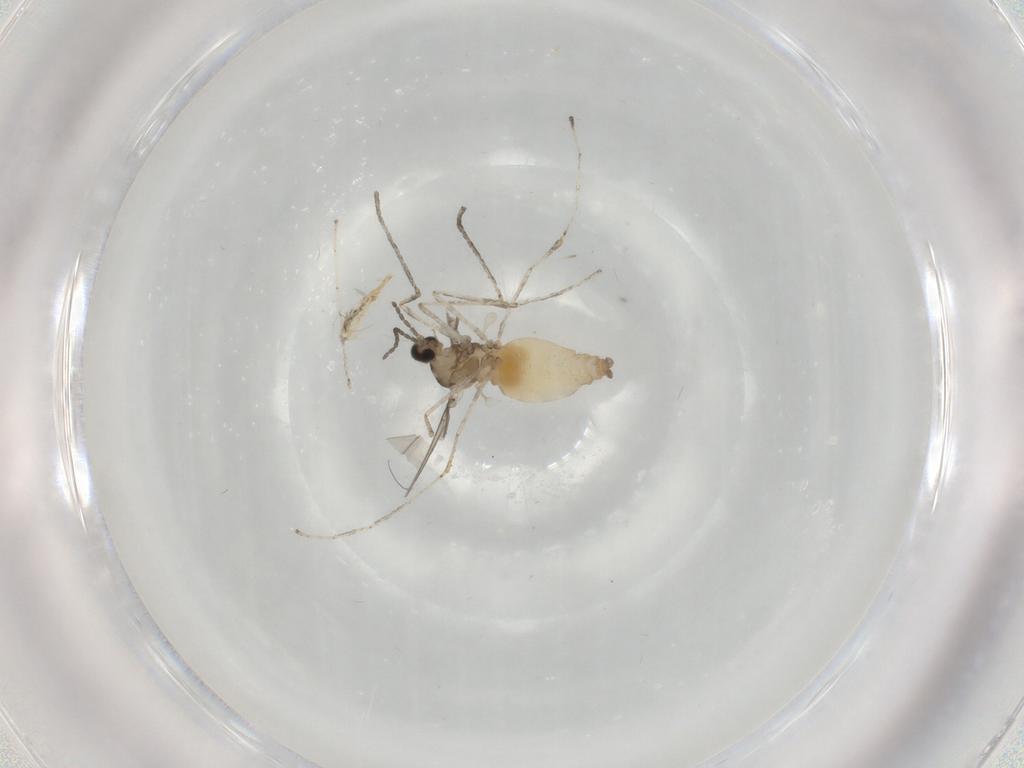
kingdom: Animalia
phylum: Arthropoda
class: Insecta
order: Diptera
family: Cecidomyiidae
